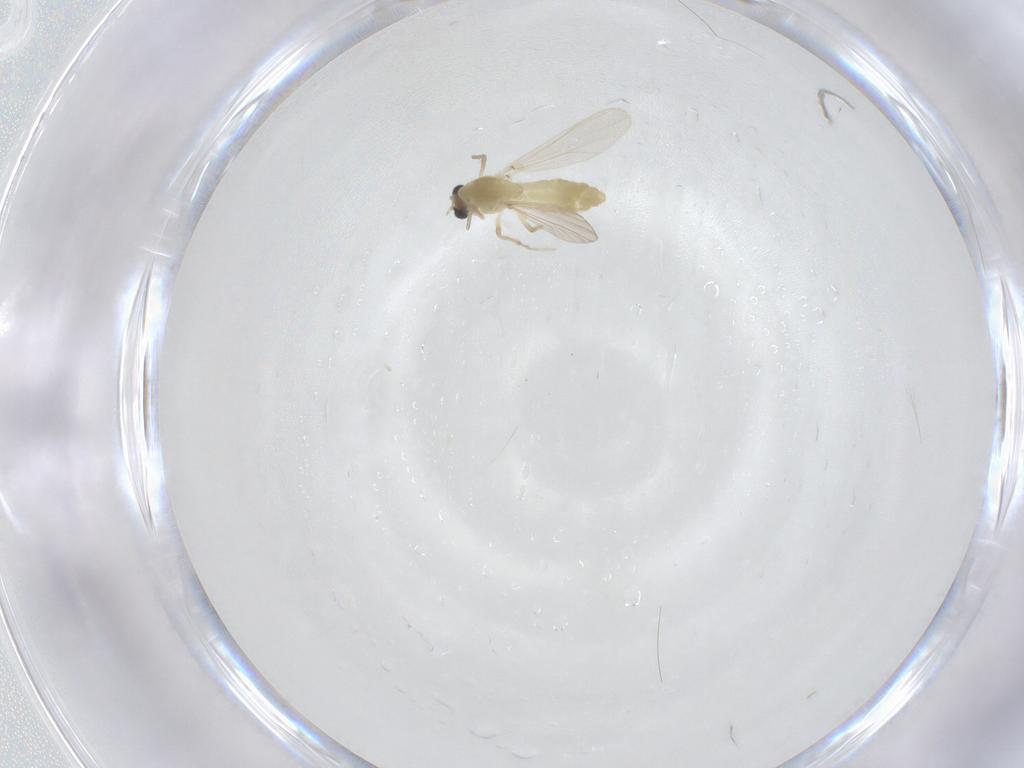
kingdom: Animalia
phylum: Arthropoda
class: Insecta
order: Diptera
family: Chironomidae
